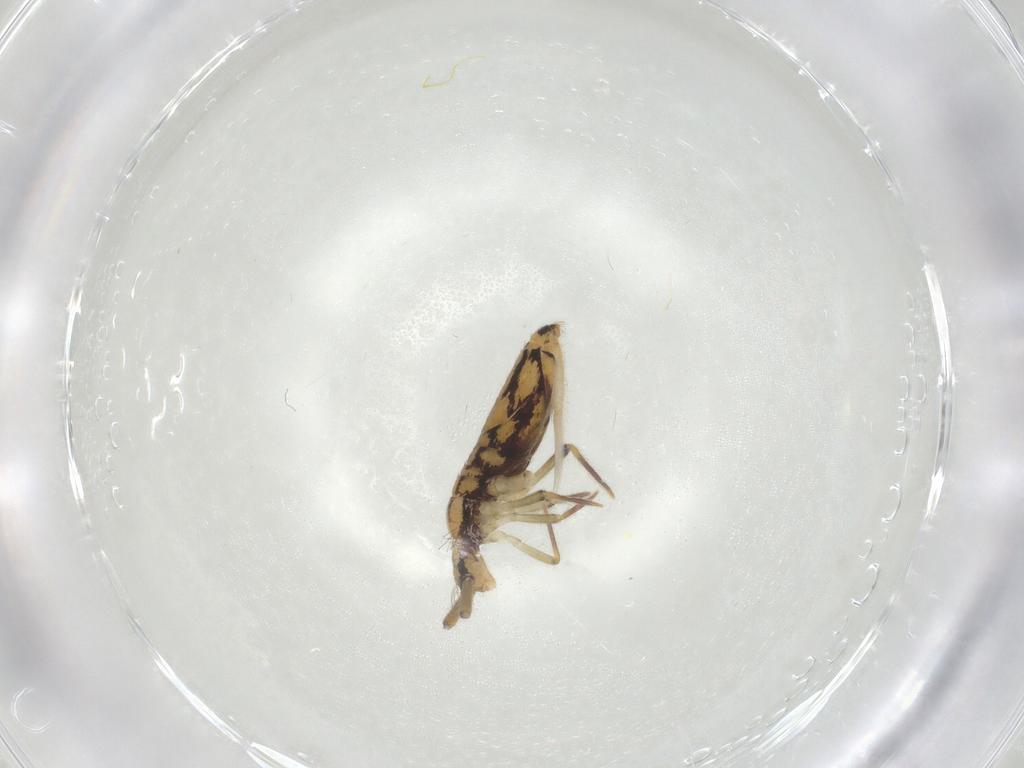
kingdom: Animalia
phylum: Arthropoda
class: Collembola
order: Entomobryomorpha
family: Entomobryidae
